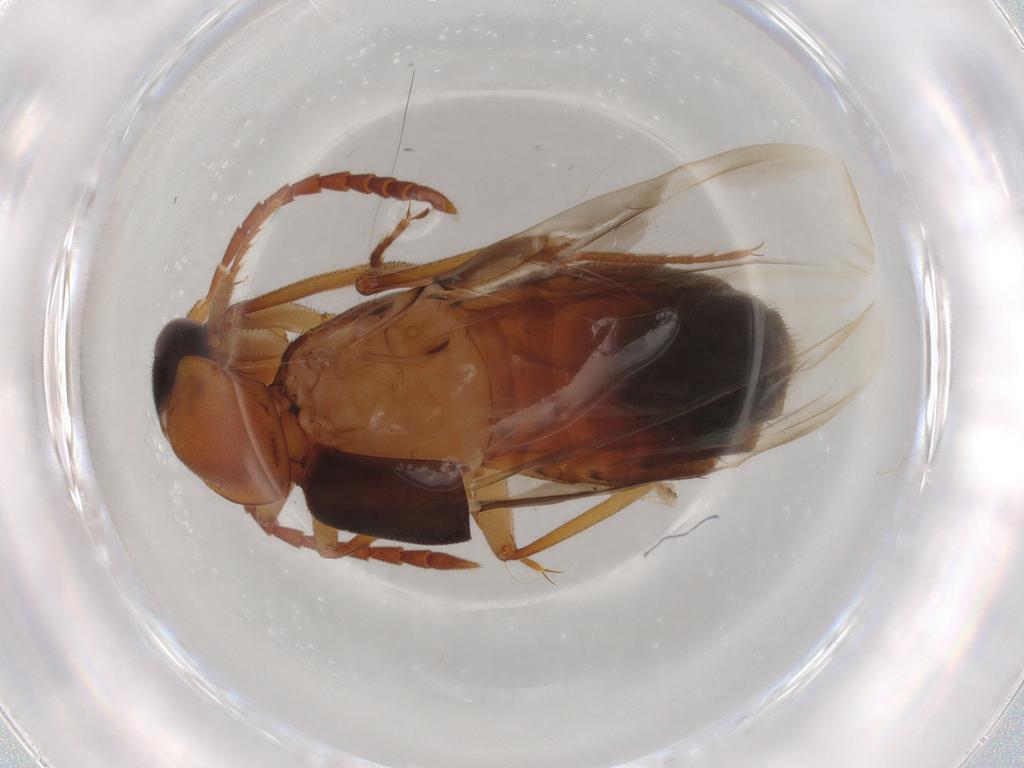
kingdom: Animalia
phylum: Arthropoda
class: Insecta
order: Coleoptera
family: Staphylinidae
